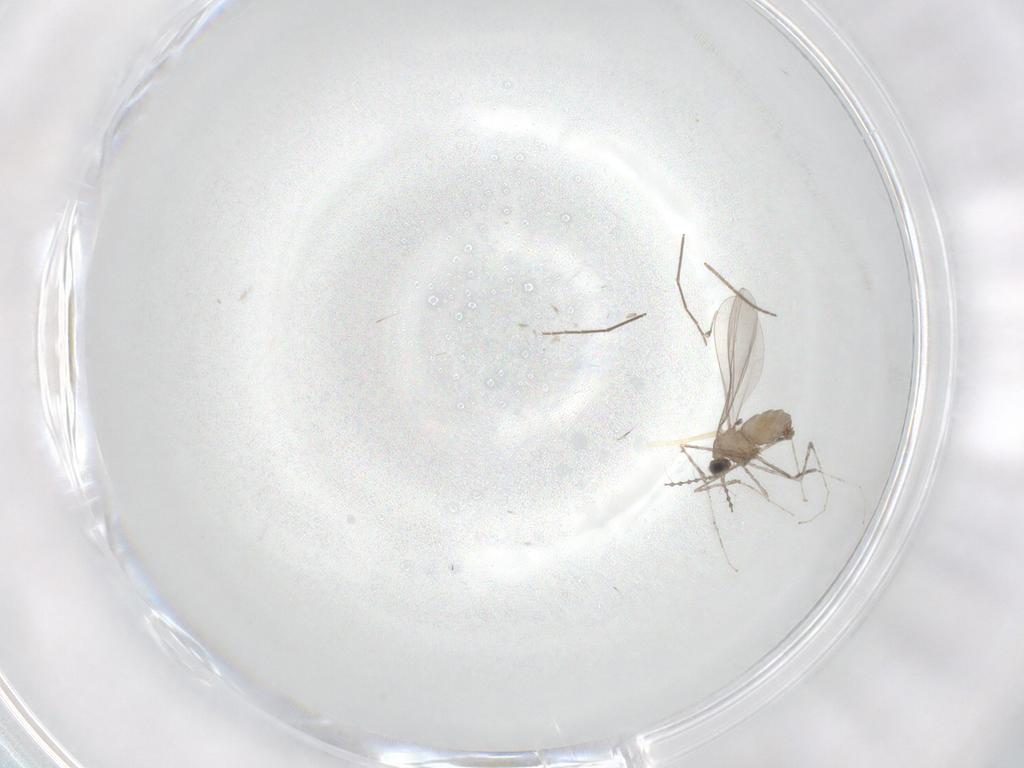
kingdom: Animalia
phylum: Arthropoda
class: Insecta
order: Diptera
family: Cecidomyiidae
